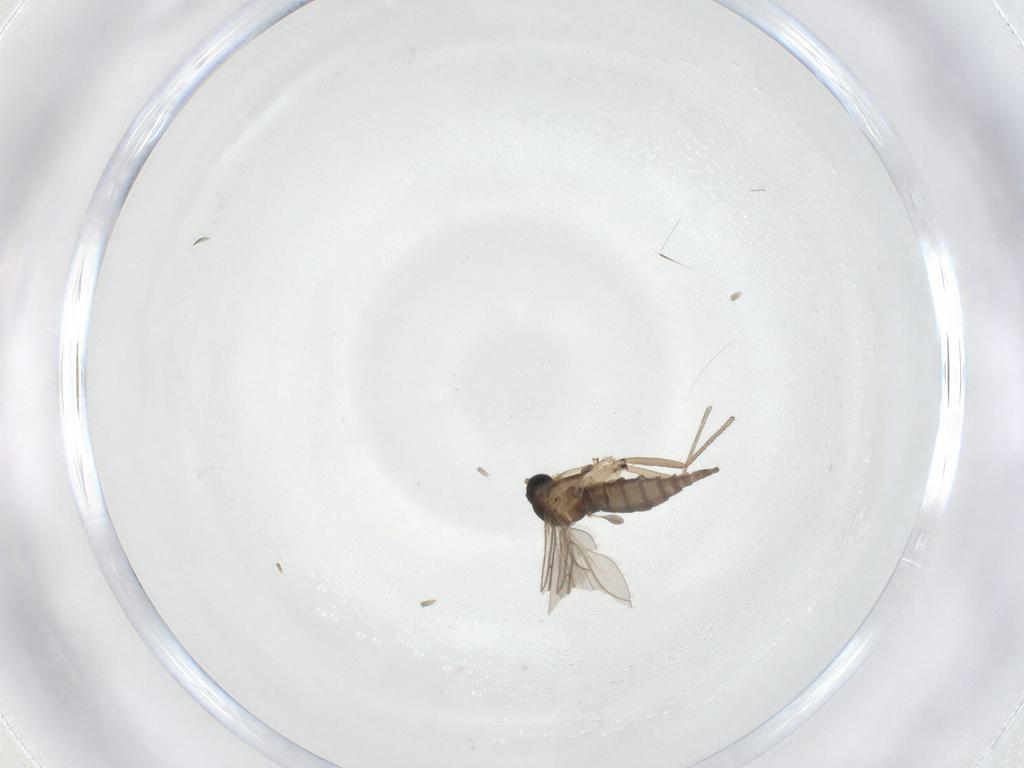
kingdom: Animalia
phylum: Arthropoda
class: Insecta
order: Diptera
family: Sciaridae
